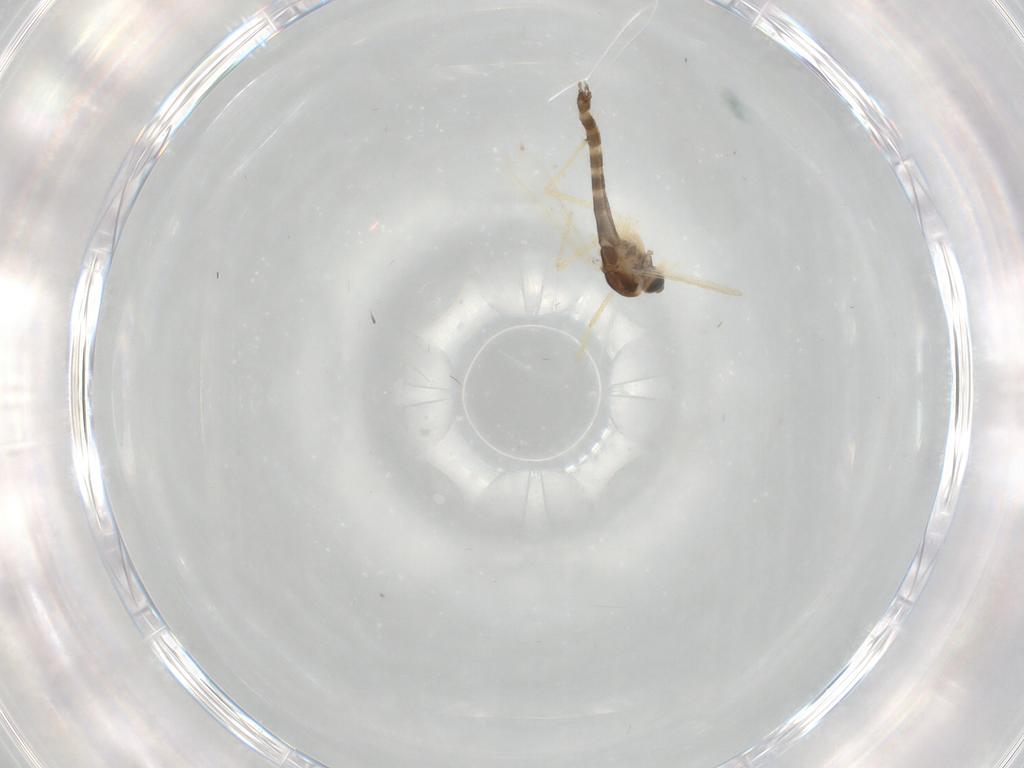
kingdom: Animalia
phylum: Arthropoda
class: Insecta
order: Diptera
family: Chironomidae
